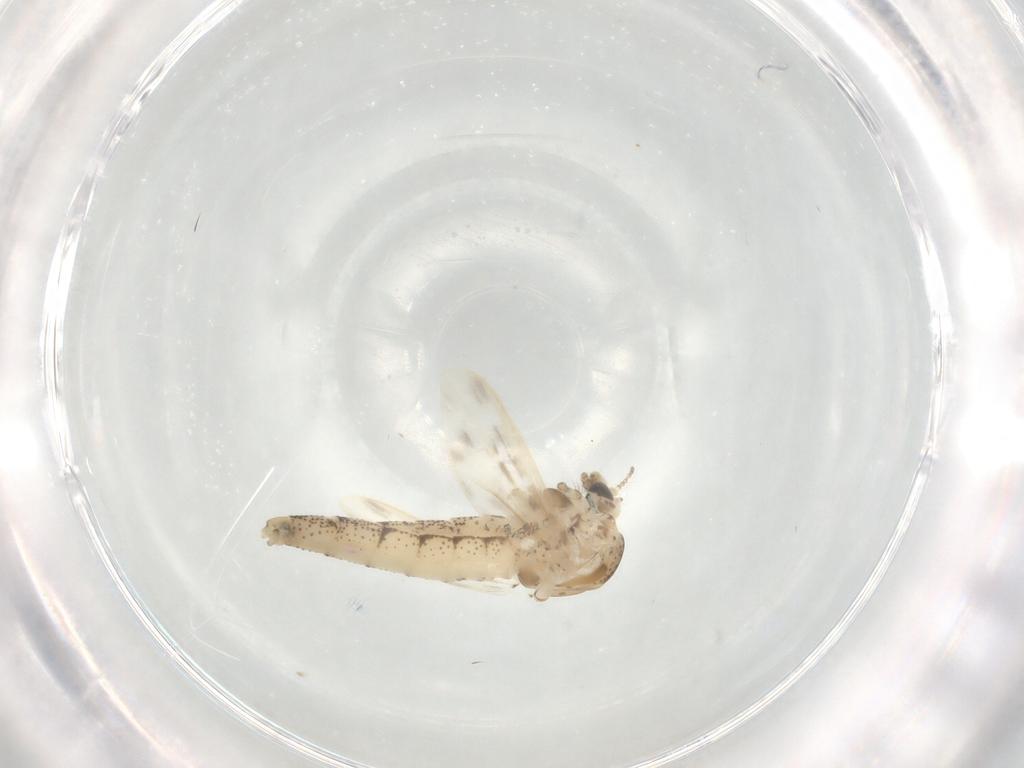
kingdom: Animalia
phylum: Arthropoda
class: Insecta
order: Diptera
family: Chaoboridae
